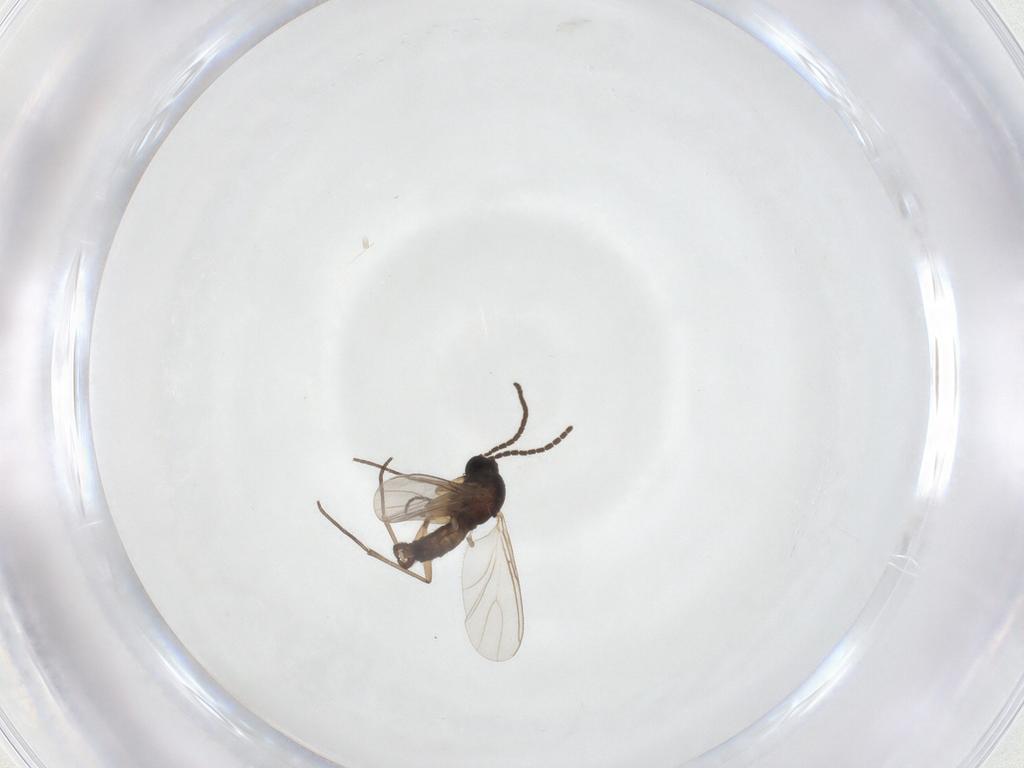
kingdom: Animalia
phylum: Arthropoda
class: Insecta
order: Diptera
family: Sciaridae
